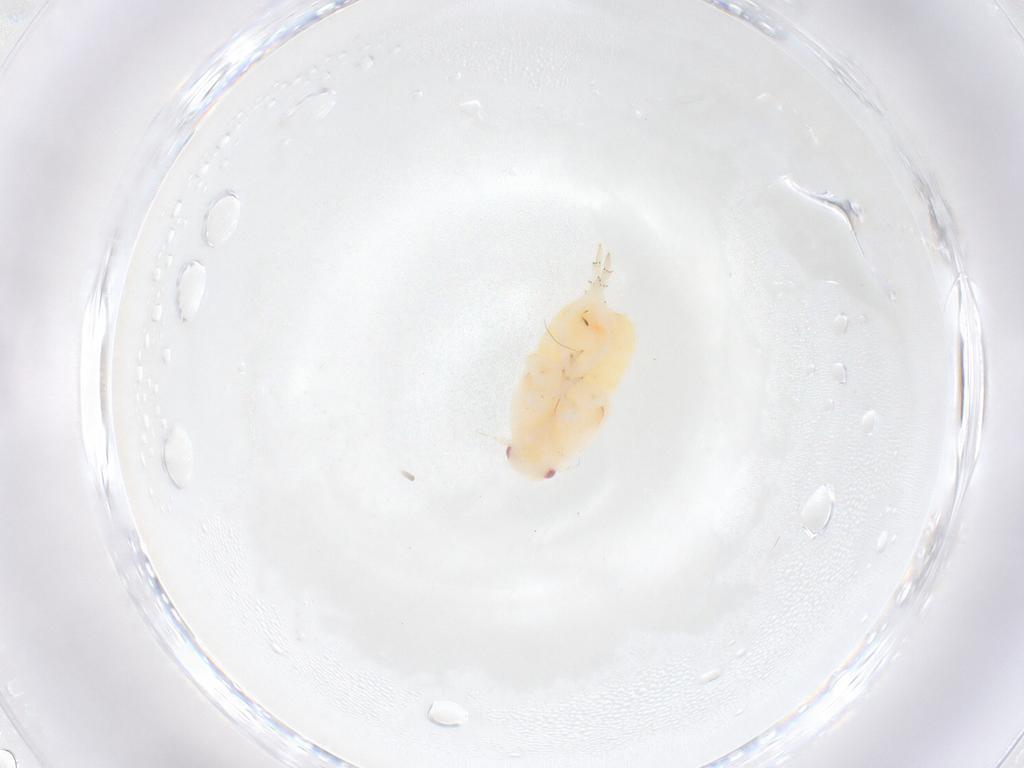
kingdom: Animalia
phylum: Arthropoda
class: Insecta
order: Hemiptera
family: Flatidae
